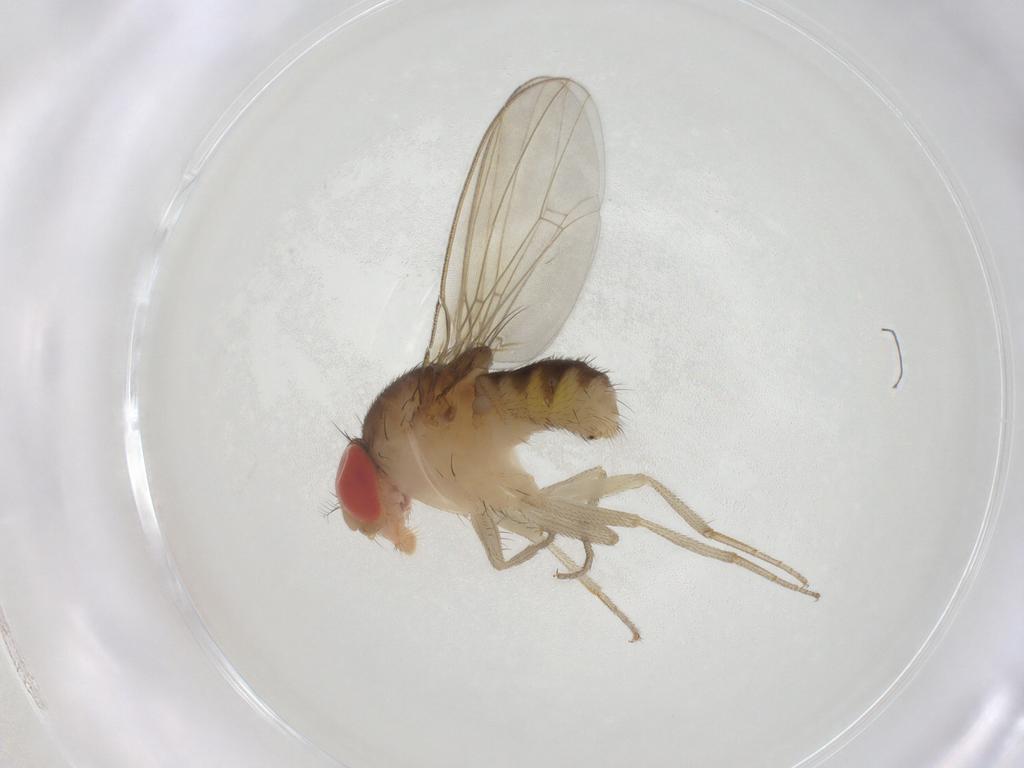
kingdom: Animalia
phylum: Arthropoda
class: Insecta
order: Diptera
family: Drosophilidae
